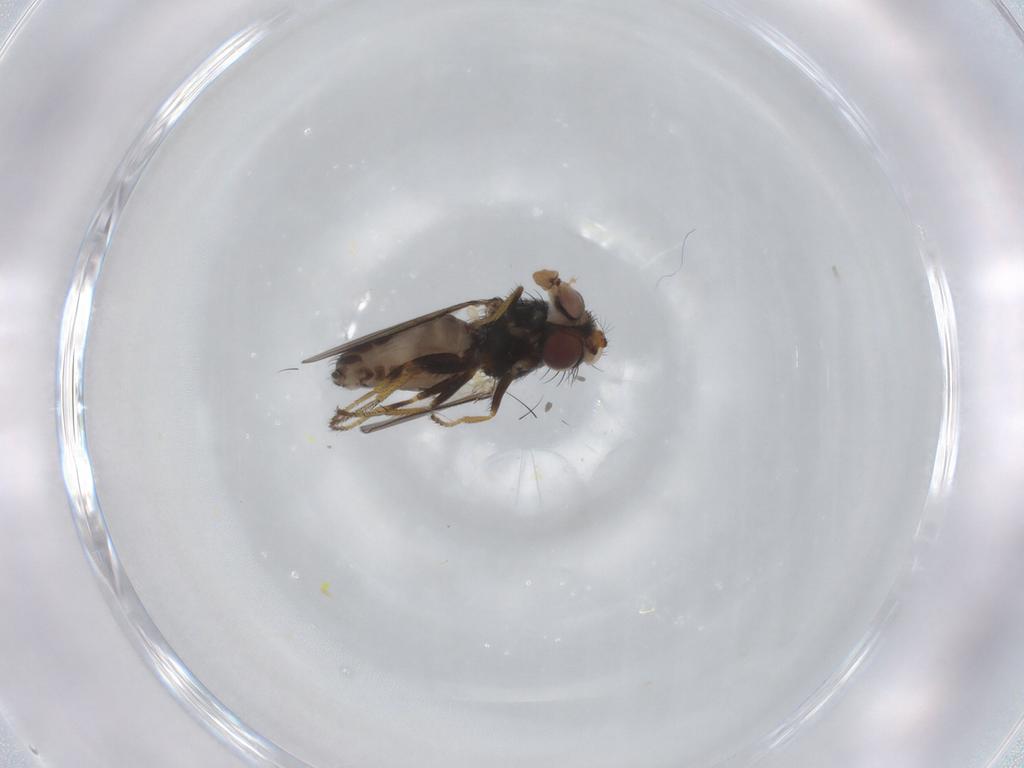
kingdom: Animalia
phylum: Arthropoda
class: Insecta
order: Diptera
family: Ephydridae
